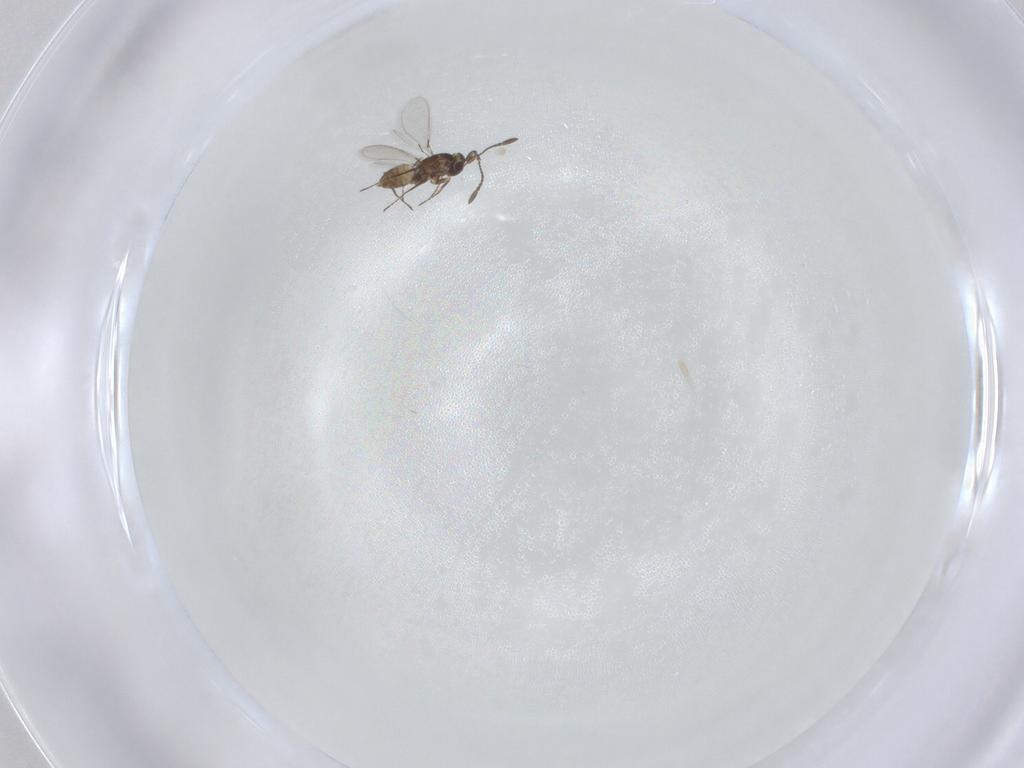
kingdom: Animalia
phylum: Arthropoda
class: Insecta
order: Hymenoptera
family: Mymaridae
